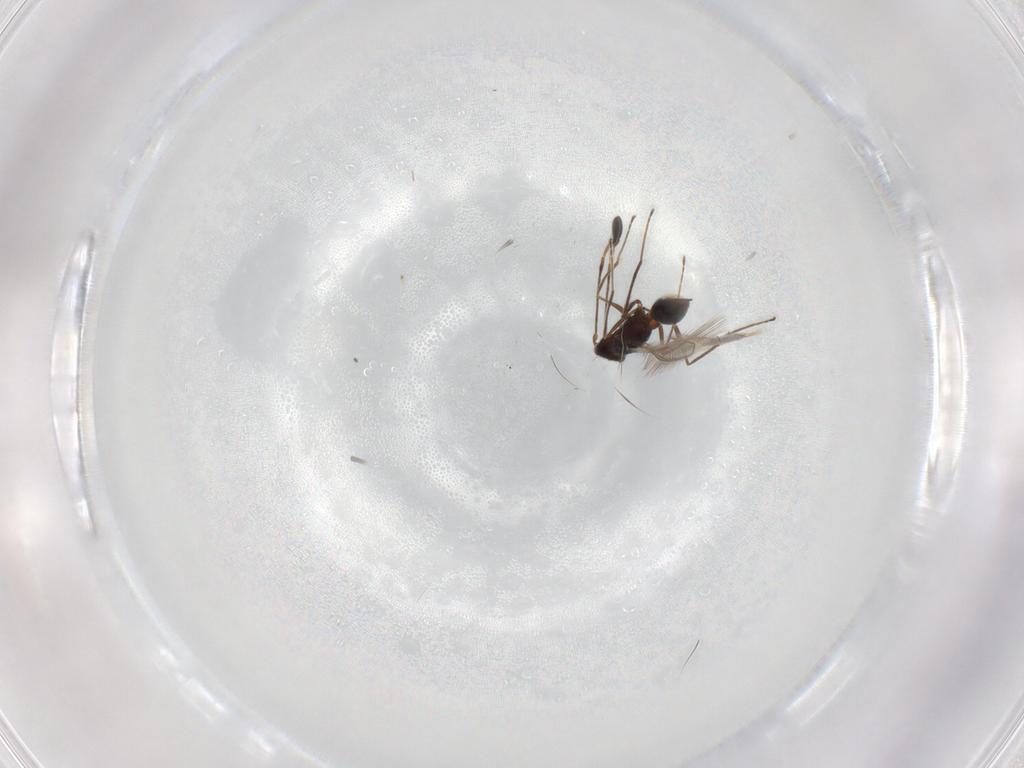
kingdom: Animalia
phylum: Arthropoda
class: Insecta
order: Hymenoptera
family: Mymaridae
